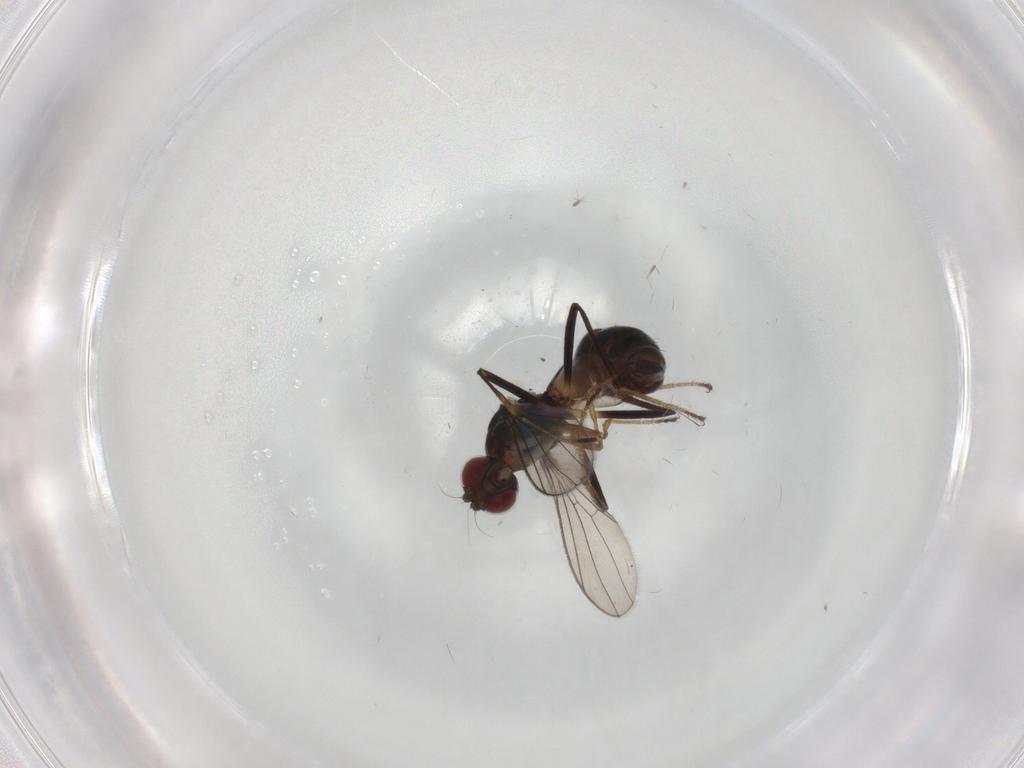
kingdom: Animalia
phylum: Arthropoda
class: Insecta
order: Diptera
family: Sepsidae
